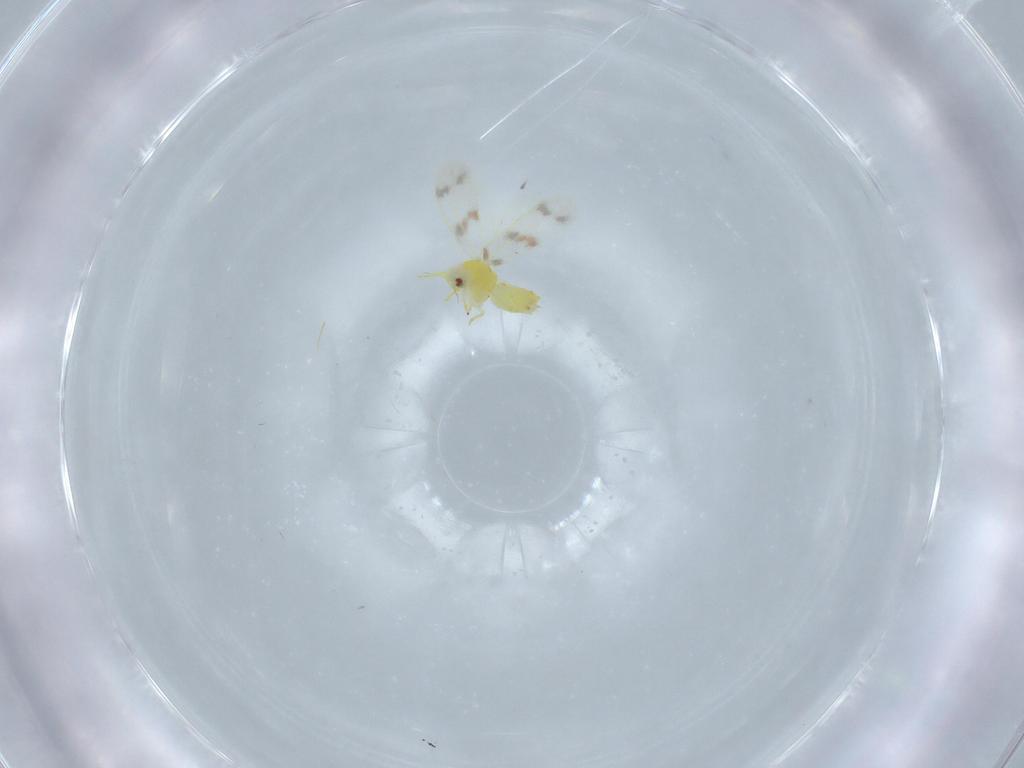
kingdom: Animalia
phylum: Arthropoda
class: Insecta
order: Hemiptera
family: Aleyrodidae
